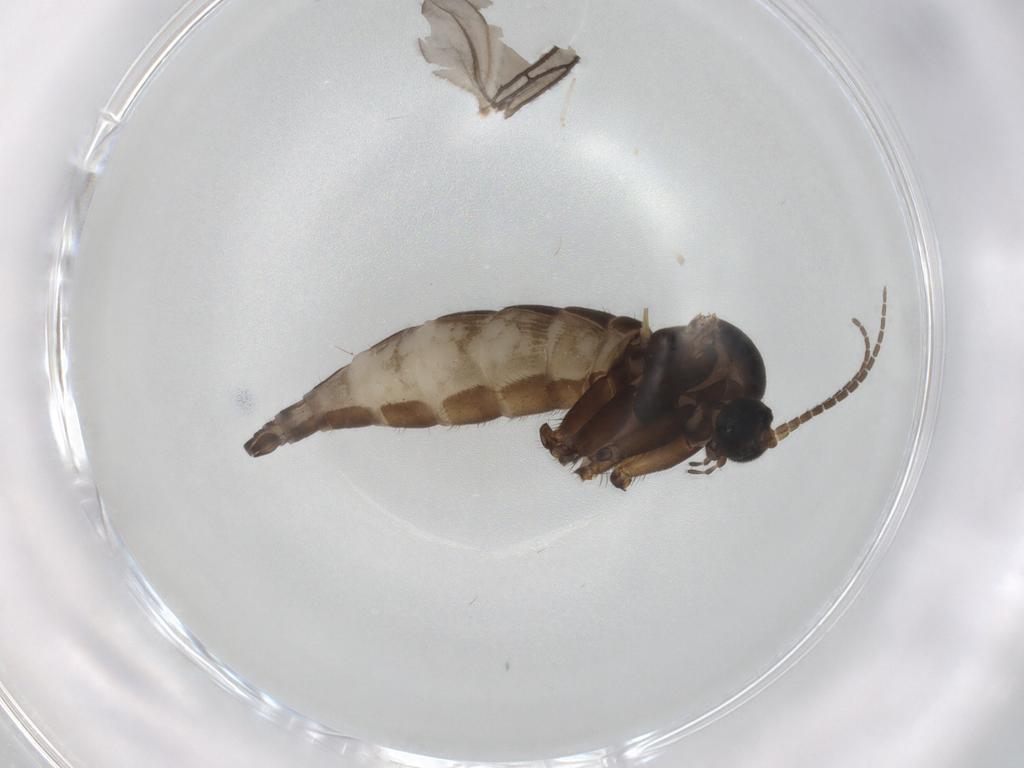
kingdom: Animalia
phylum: Arthropoda
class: Insecta
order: Diptera
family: Cecidomyiidae
